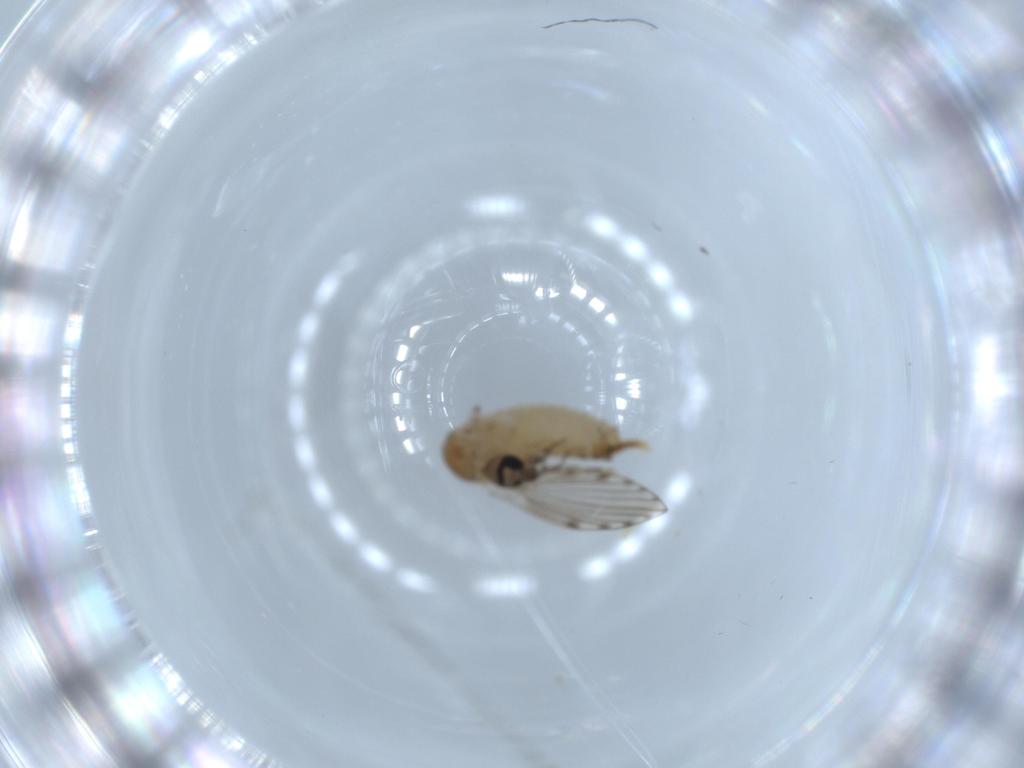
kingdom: Animalia
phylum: Arthropoda
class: Insecta
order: Diptera
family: Psychodidae
